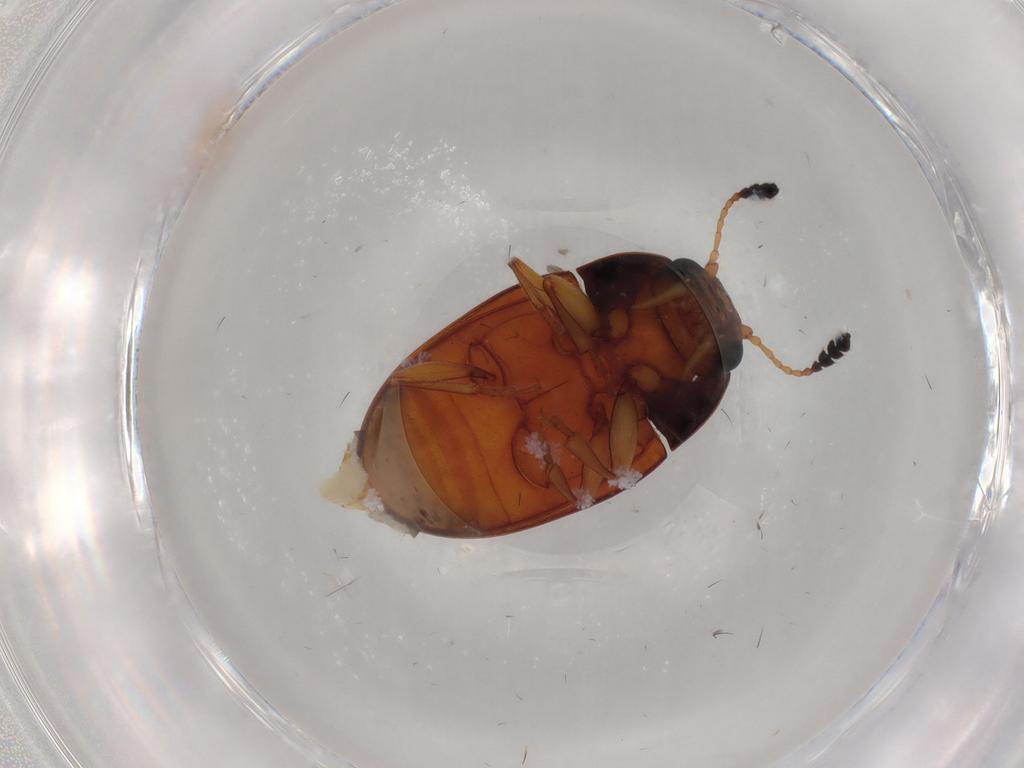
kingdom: Animalia
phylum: Arthropoda
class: Insecta
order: Coleoptera
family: Erotylidae
